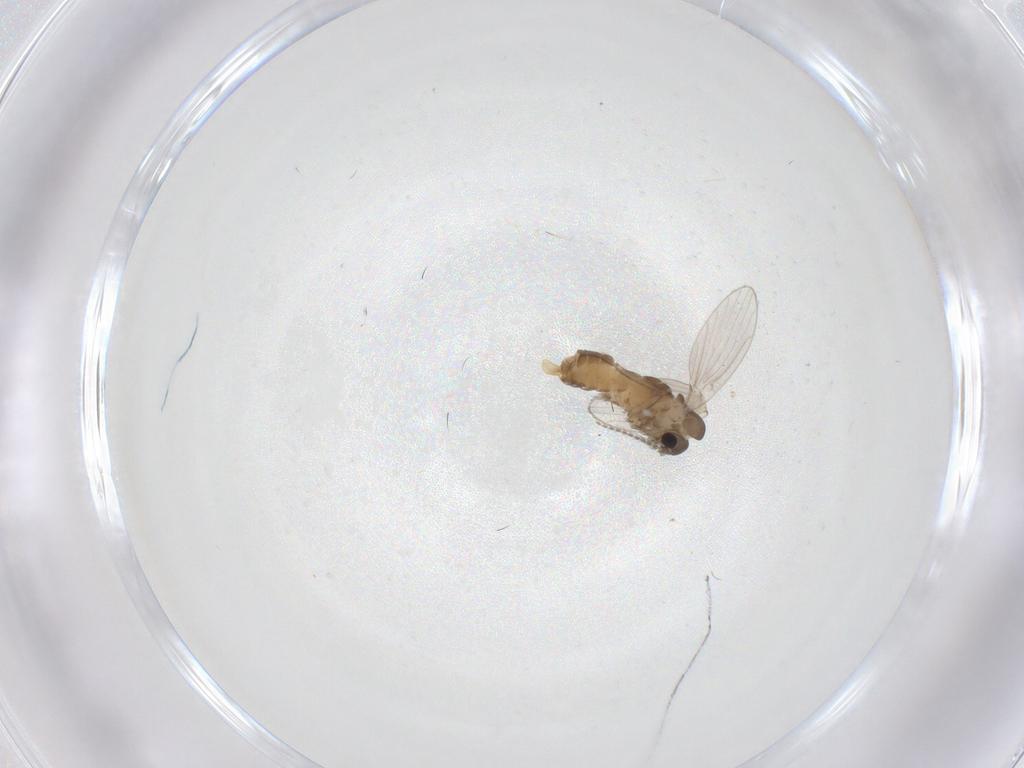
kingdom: Animalia
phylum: Arthropoda
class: Insecta
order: Diptera
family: Psychodidae
